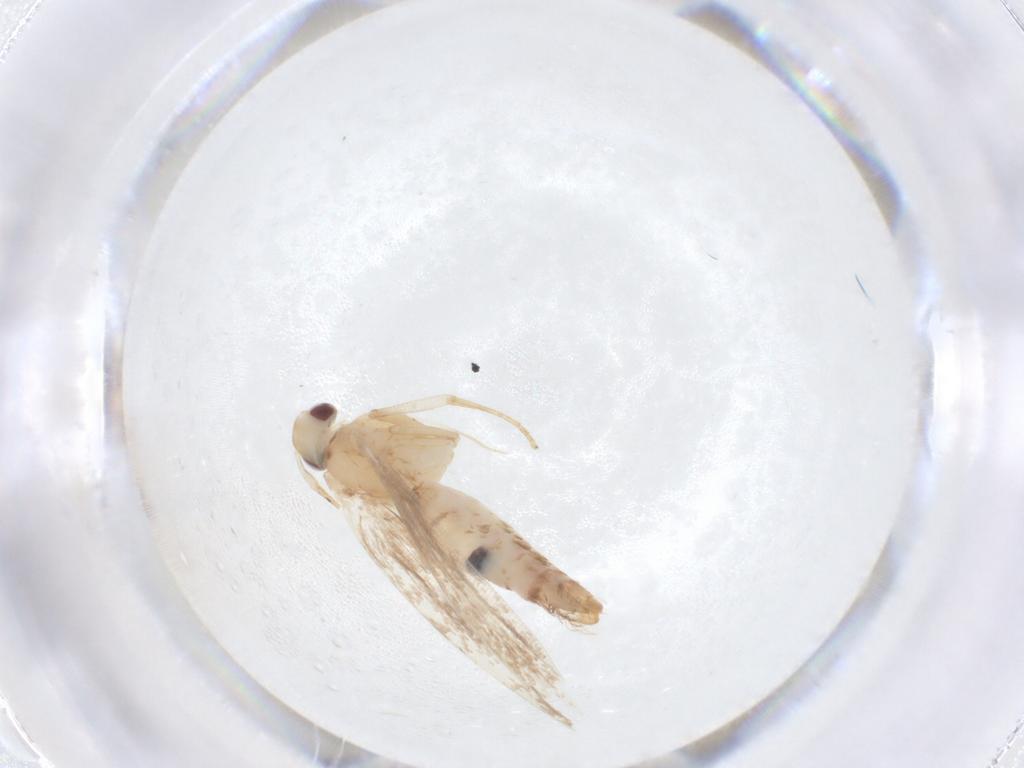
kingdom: Animalia
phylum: Arthropoda
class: Insecta
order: Lepidoptera
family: Cosmopterigidae
